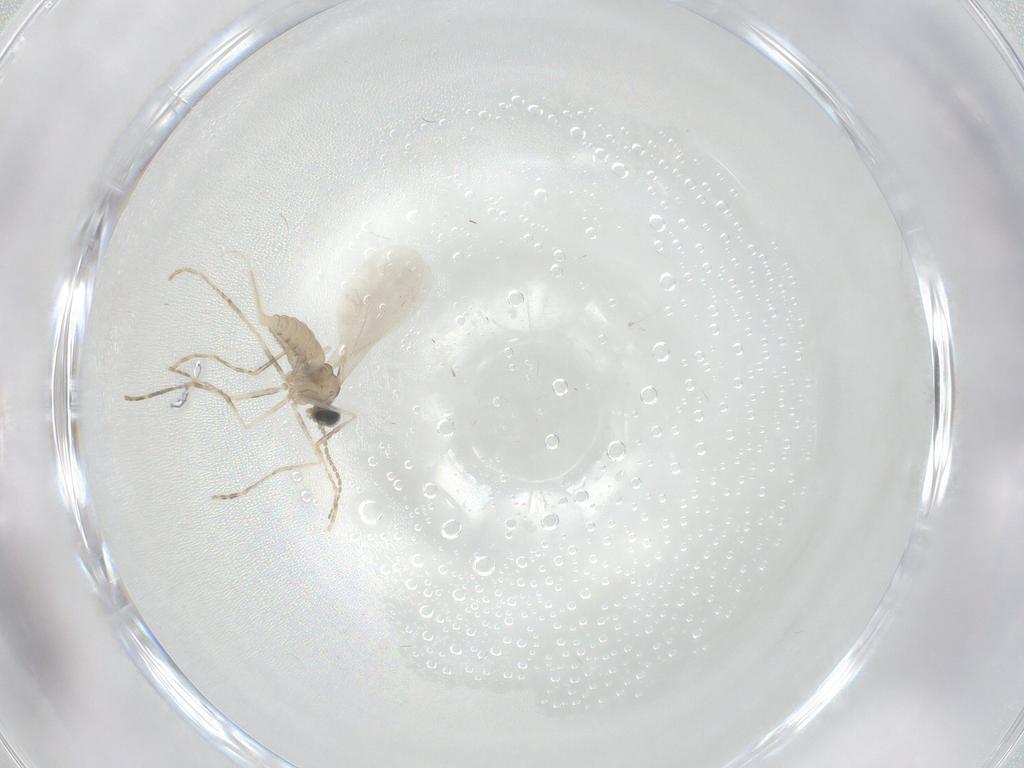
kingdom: Animalia
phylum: Arthropoda
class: Insecta
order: Diptera
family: Cecidomyiidae
